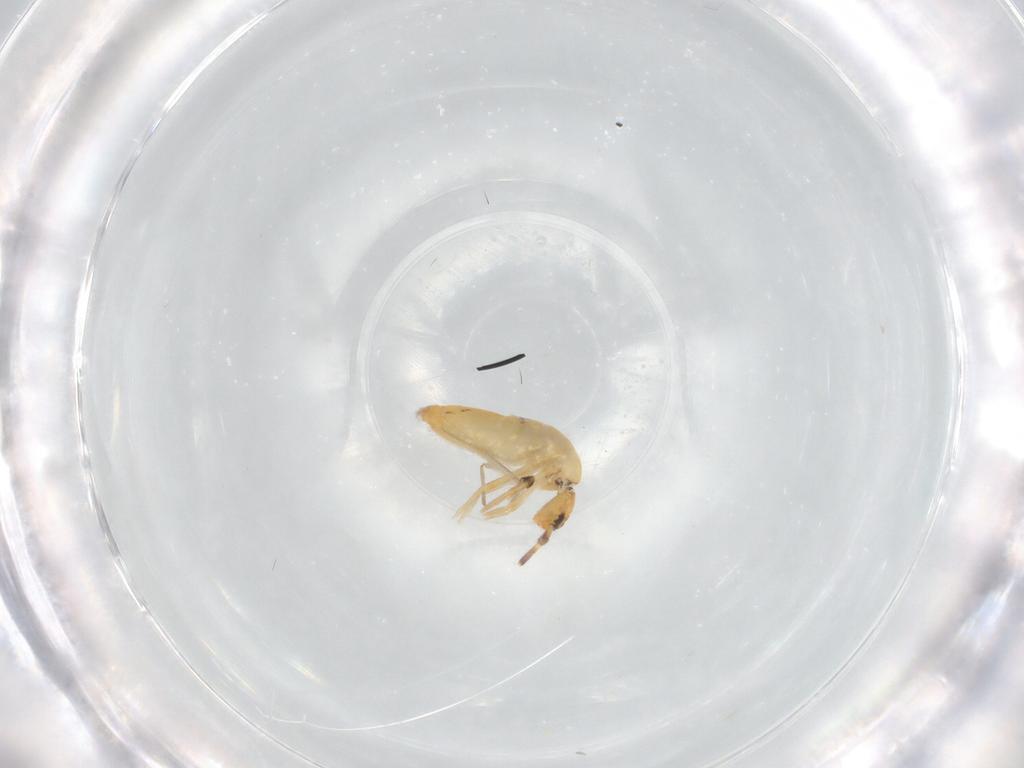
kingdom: Animalia
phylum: Arthropoda
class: Collembola
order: Entomobryomorpha
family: Entomobryidae
